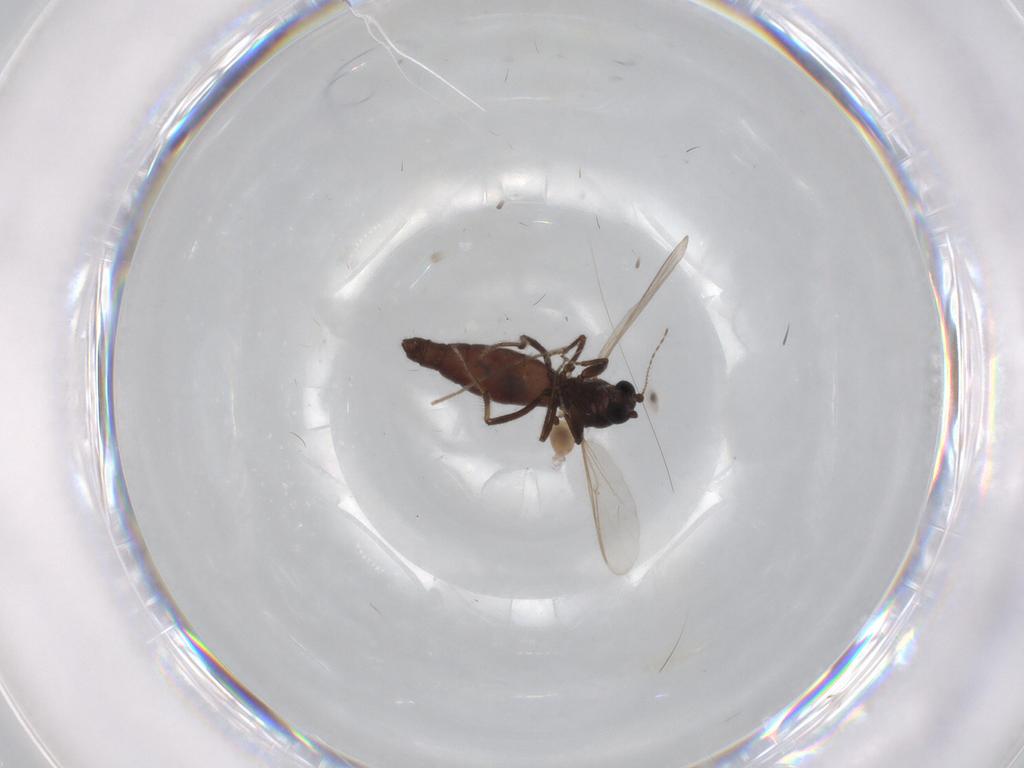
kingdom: Animalia
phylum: Arthropoda
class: Insecta
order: Diptera
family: Ceratopogonidae
